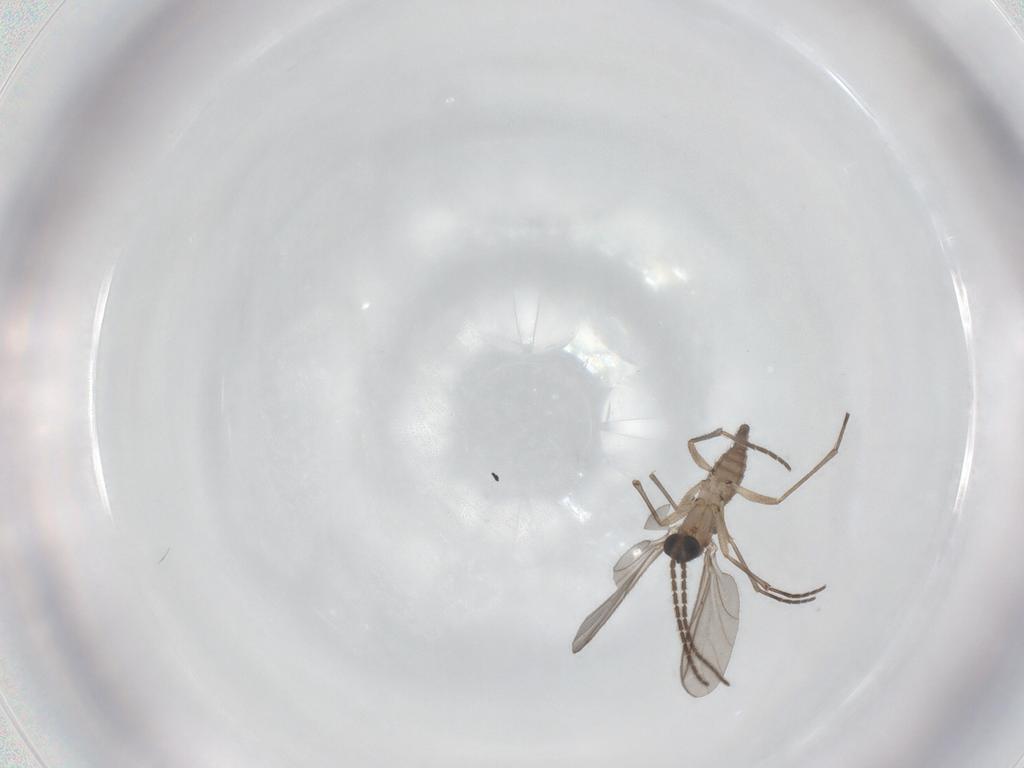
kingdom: Animalia
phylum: Arthropoda
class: Insecta
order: Diptera
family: Sciaridae
